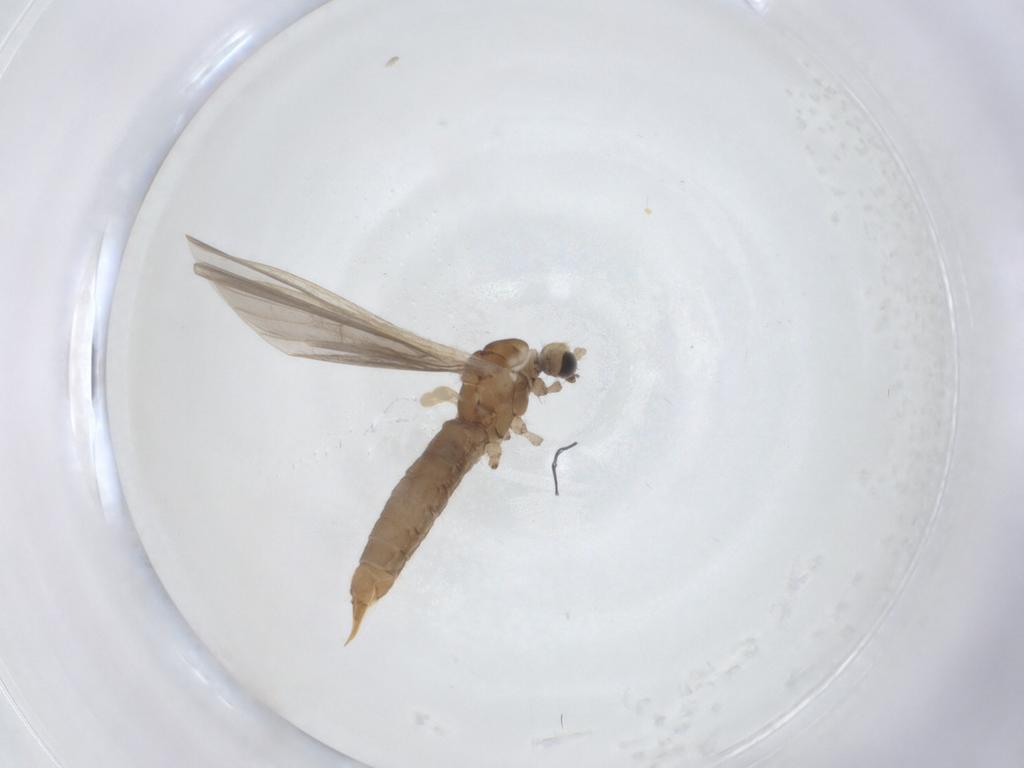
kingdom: Animalia
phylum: Arthropoda
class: Insecta
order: Diptera
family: Limoniidae
